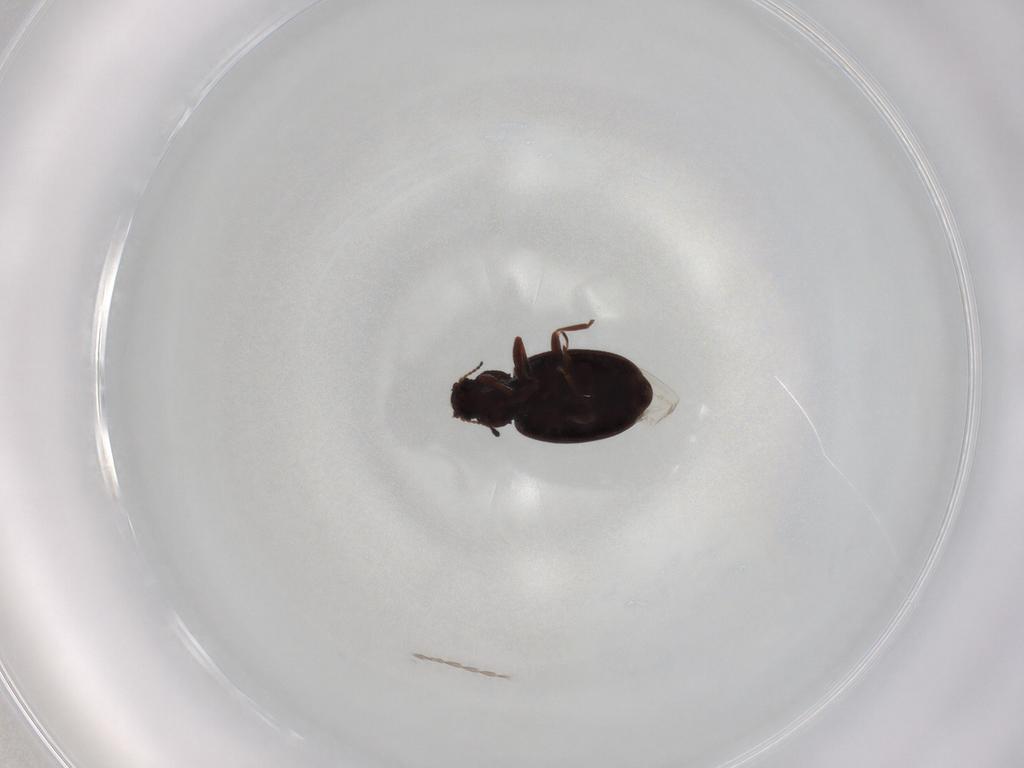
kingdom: Animalia
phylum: Arthropoda
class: Insecta
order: Coleoptera
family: Latridiidae
